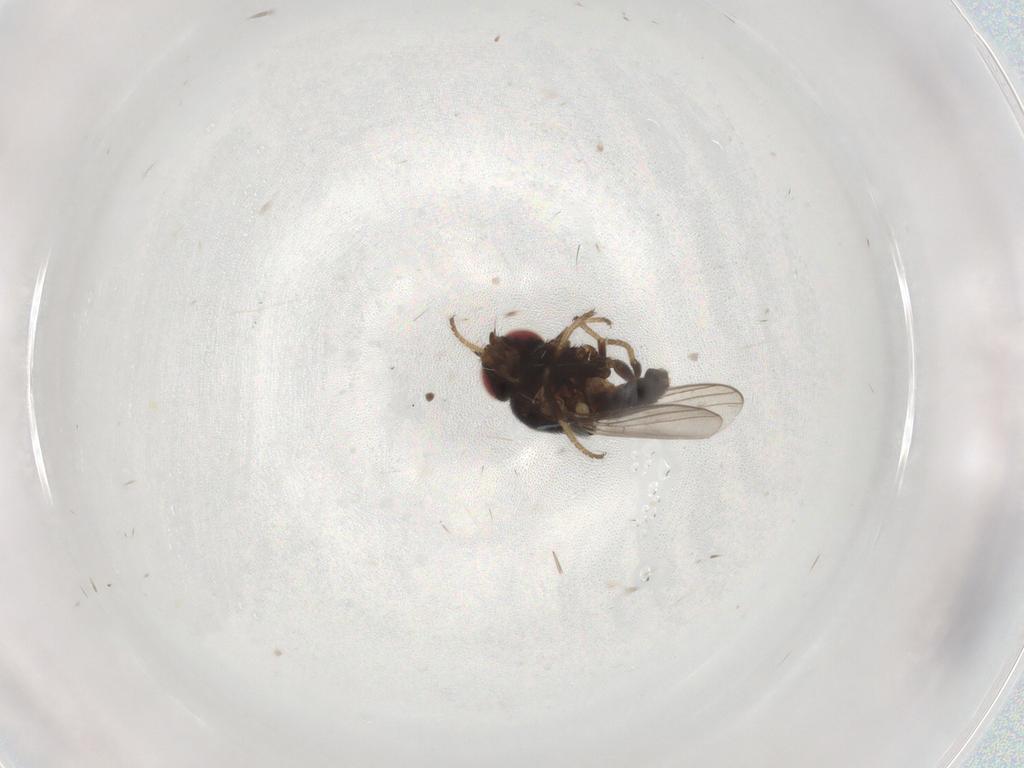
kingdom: Animalia
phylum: Arthropoda
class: Insecta
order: Diptera
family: Chloropidae
